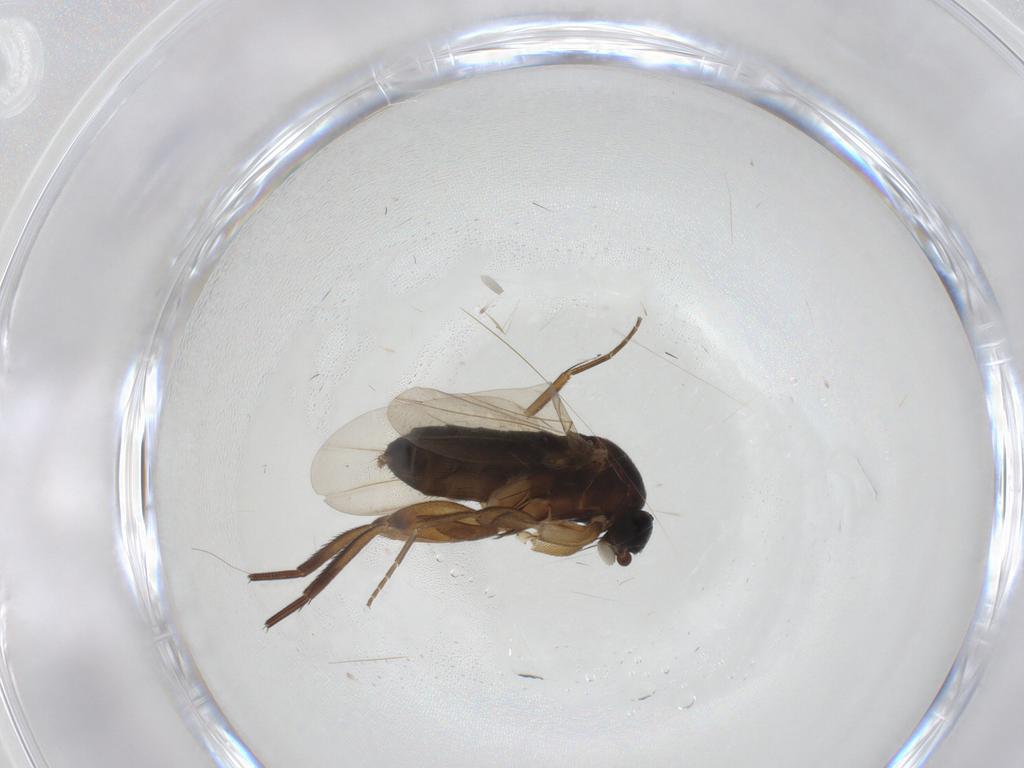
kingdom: Animalia
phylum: Arthropoda
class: Insecta
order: Diptera
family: Phoridae
